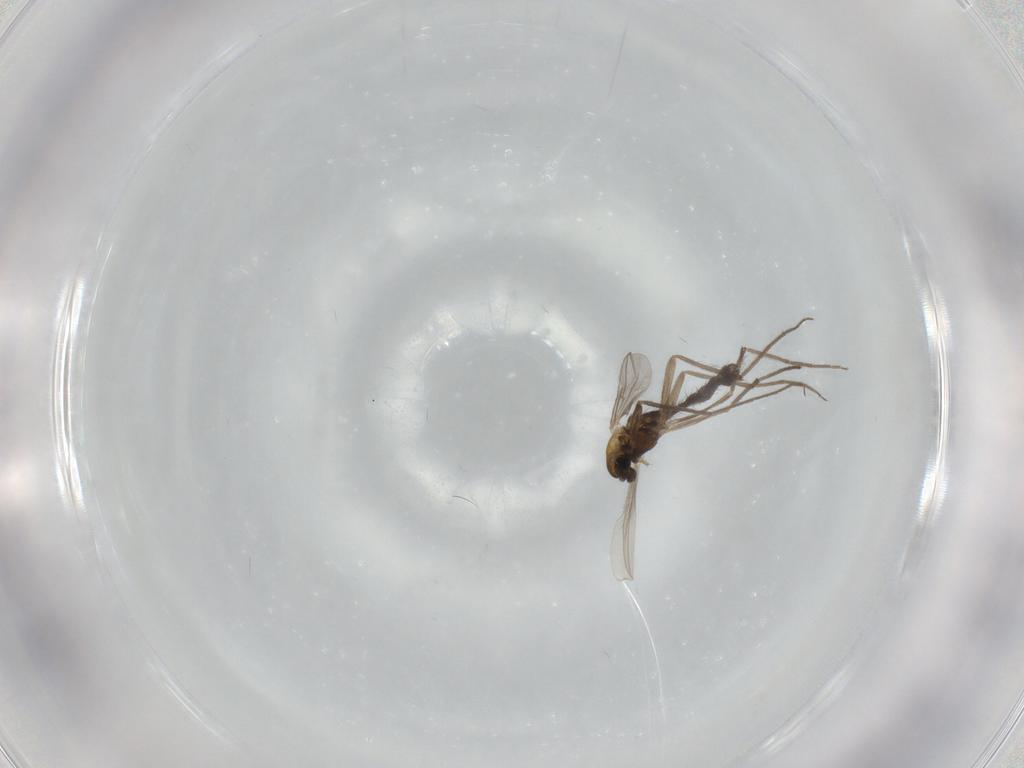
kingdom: Animalia
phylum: Arthropoda
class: Insecta
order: Diptera
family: Chironomidae
